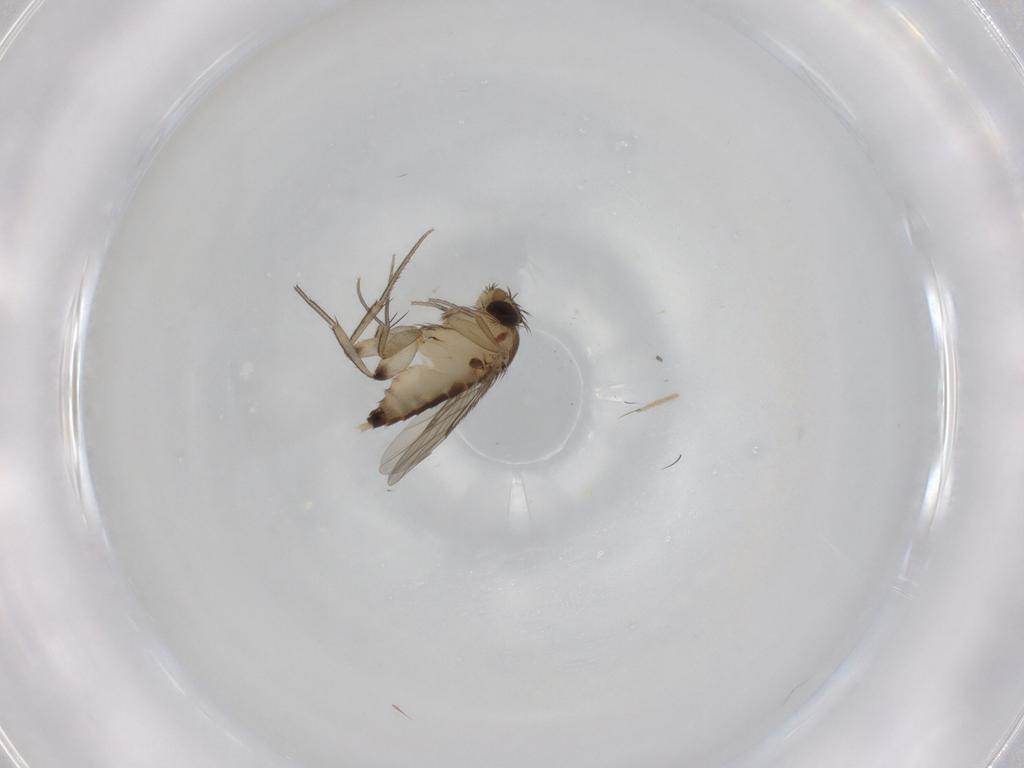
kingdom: Animalia
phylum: Arthropoda
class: Insecta
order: Diptera
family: Phoridae
